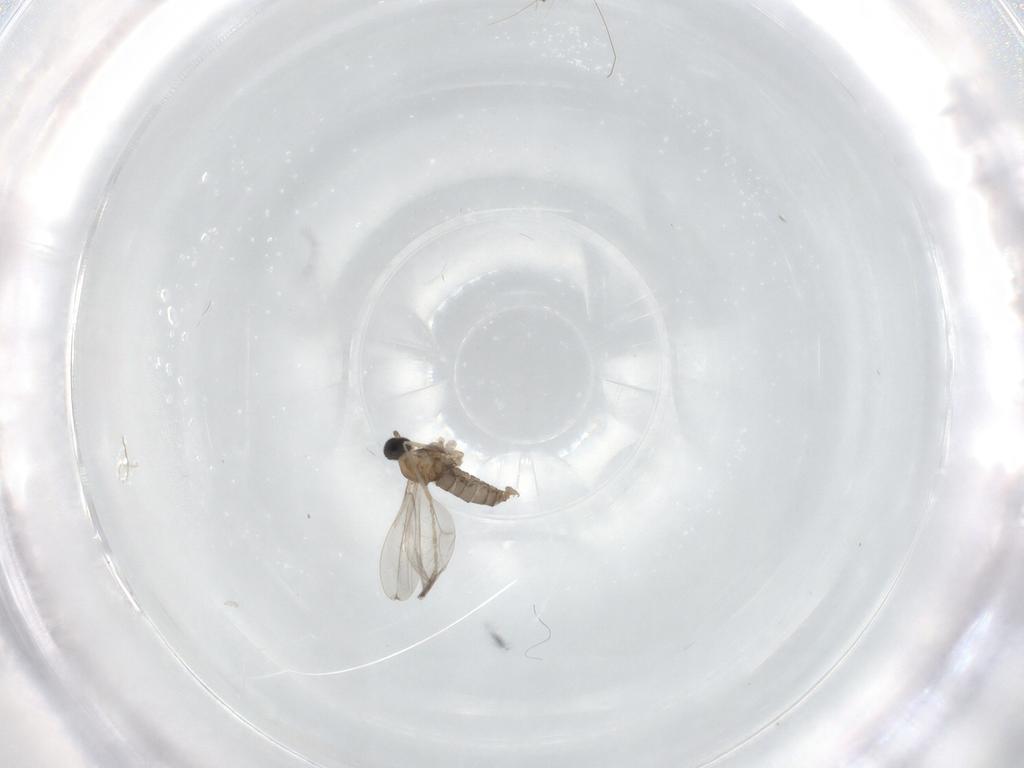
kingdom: Animalia
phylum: Arthropoda
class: Insecta
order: Diptera
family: Cecidomyiidae
